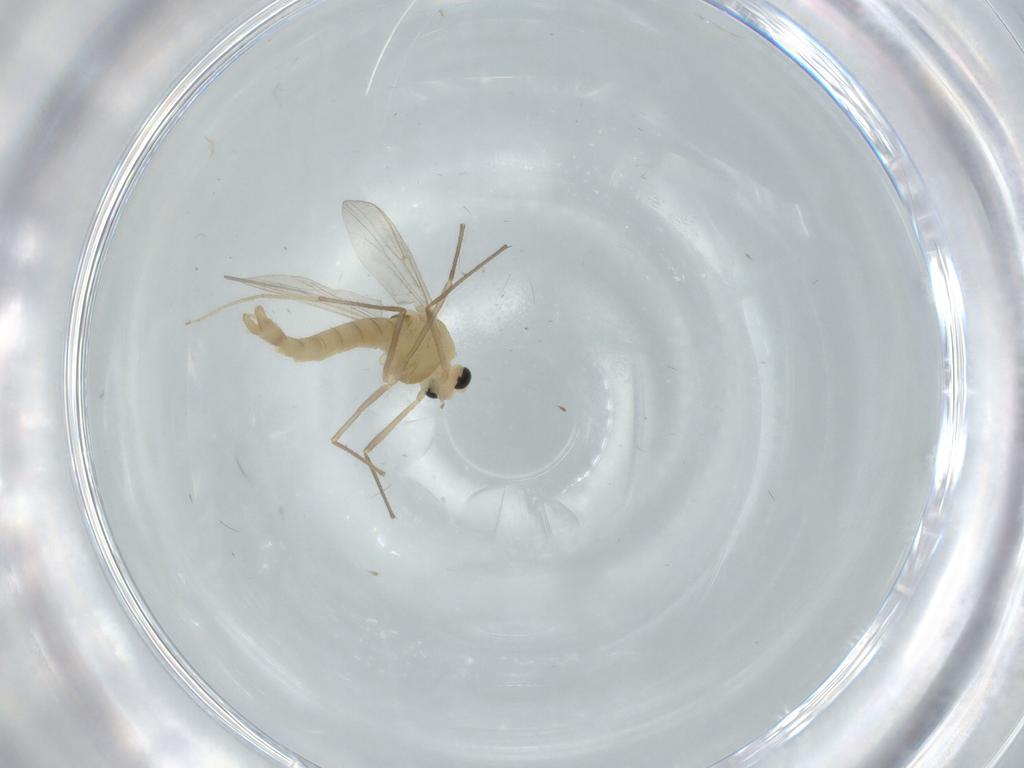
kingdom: Animalia
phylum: Arthropoda
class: Insecta
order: Diptera
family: Chironomidae
